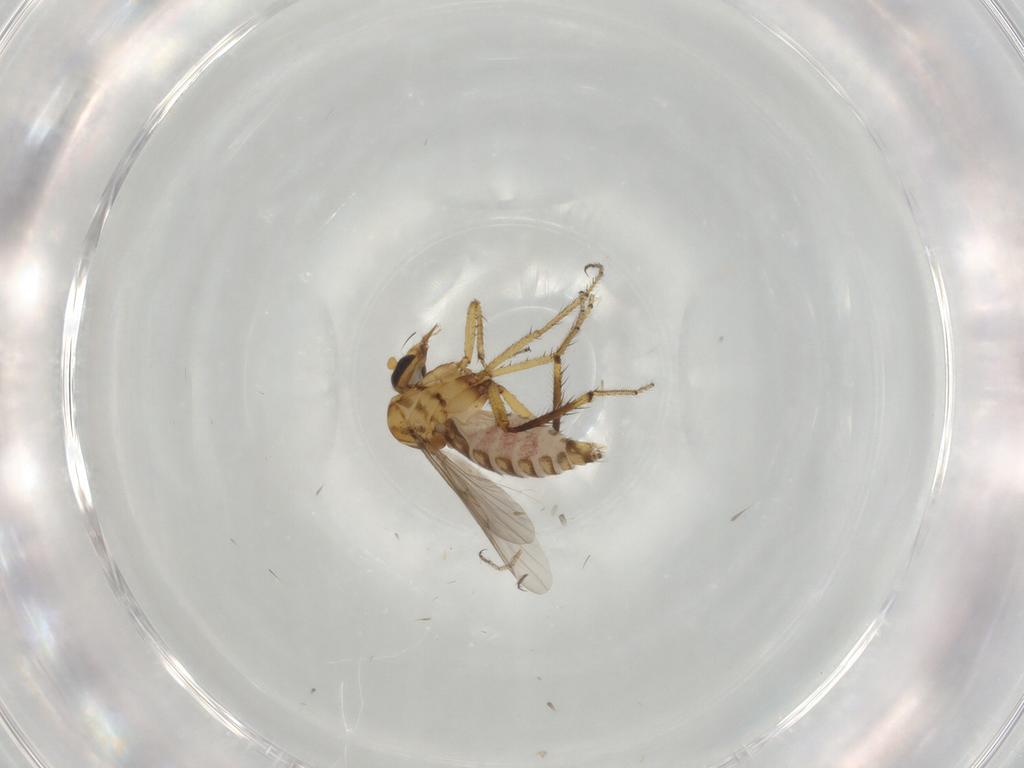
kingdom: Animalia
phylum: Arthropoda
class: Insecta
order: Diptera
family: Ceratopogonidae
